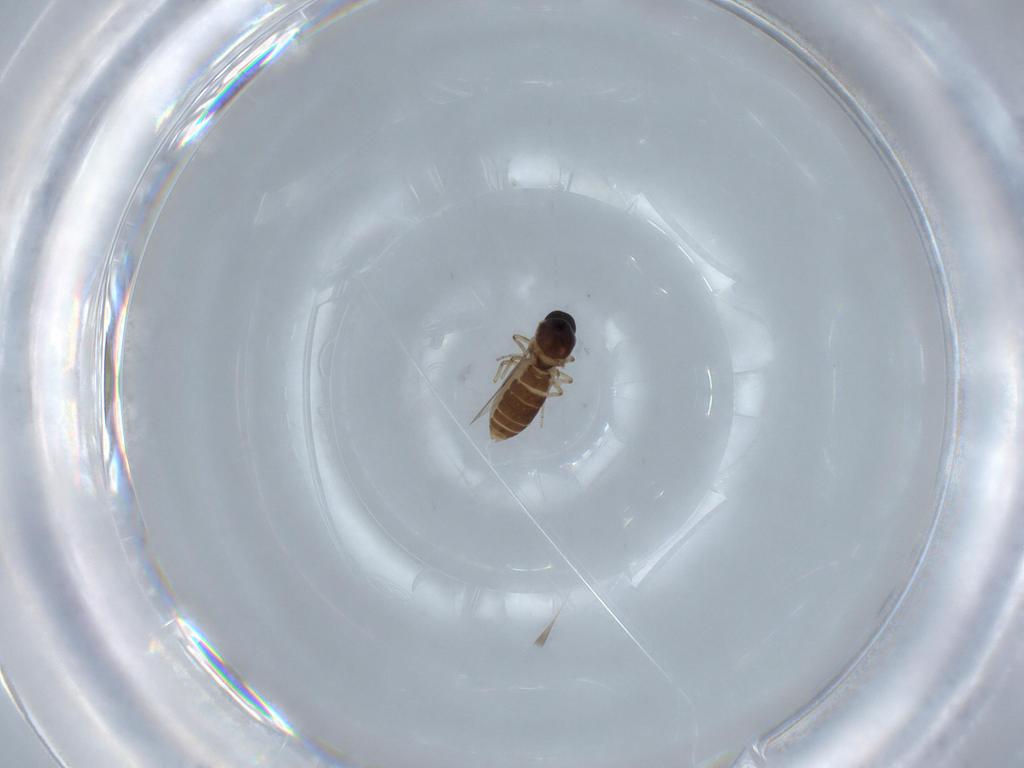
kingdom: Animalia
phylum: Arthropoda
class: Insecta
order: Diptera
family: Ceratopogonidae
